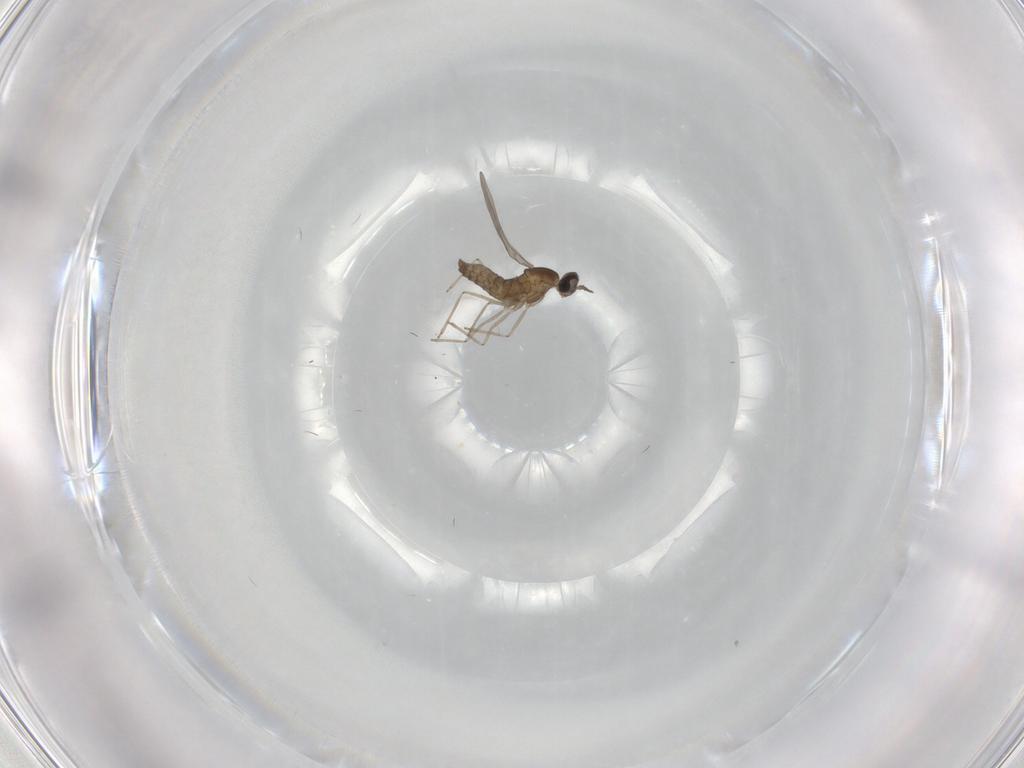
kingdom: Animalia
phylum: Arthropoda
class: Insecta
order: Diptera
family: Cecidomyiidae
